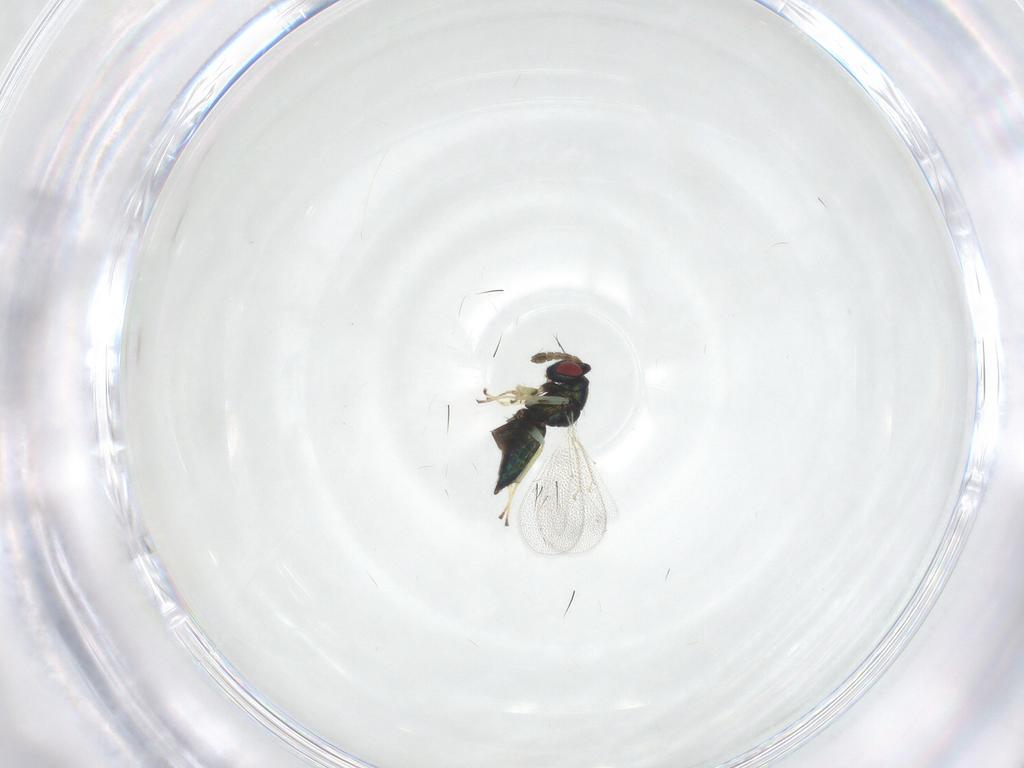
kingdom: Animalia
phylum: Arthropoda
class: Insecta
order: Hymenoptera
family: Eulophidae
